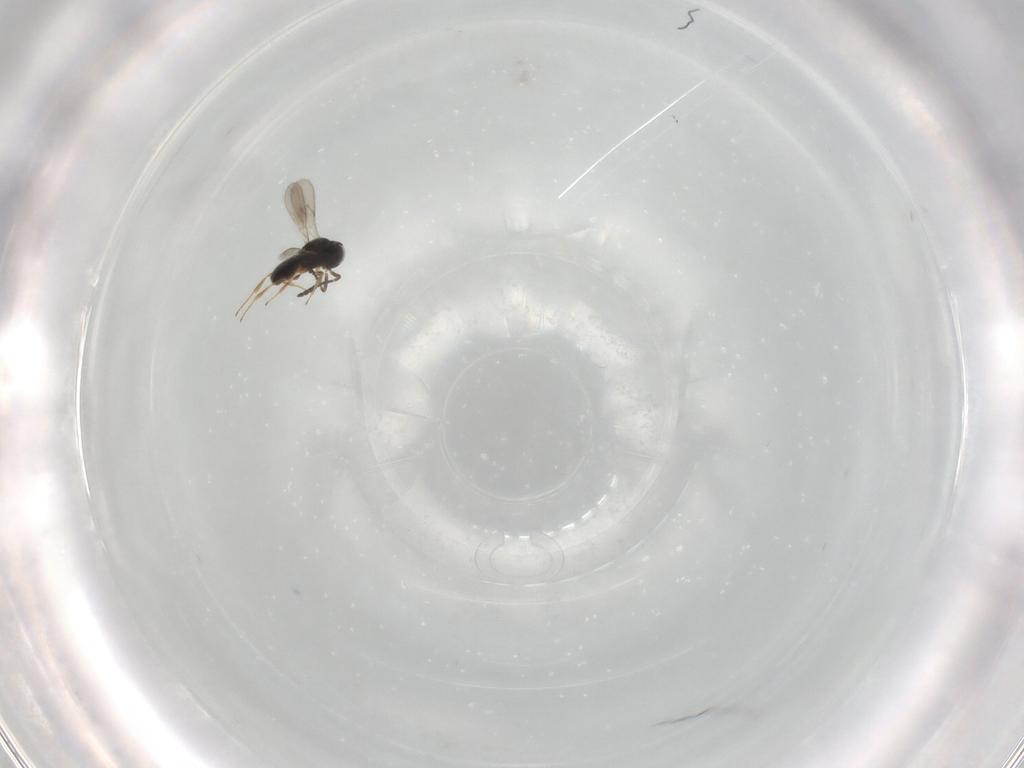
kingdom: Animalia
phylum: Arthropoda
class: Insecta
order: Hymenoptera
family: Scelionidae
